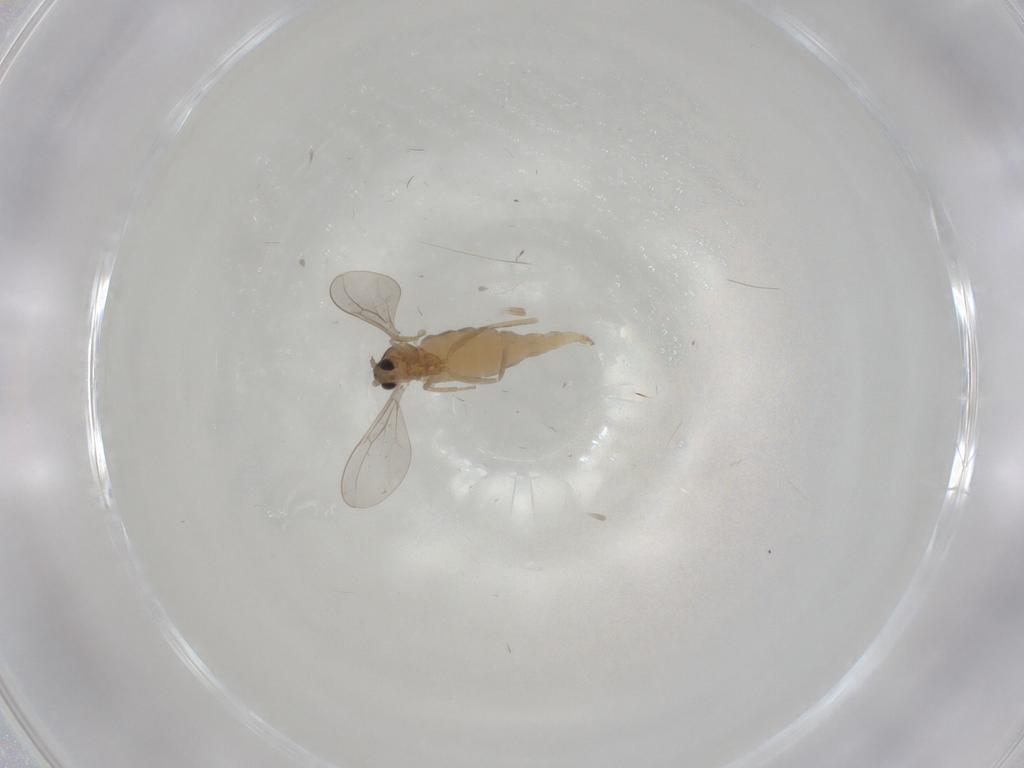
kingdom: Animalia
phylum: Arthropoda
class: Insecta
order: Diptera
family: Cecidomyiidae
